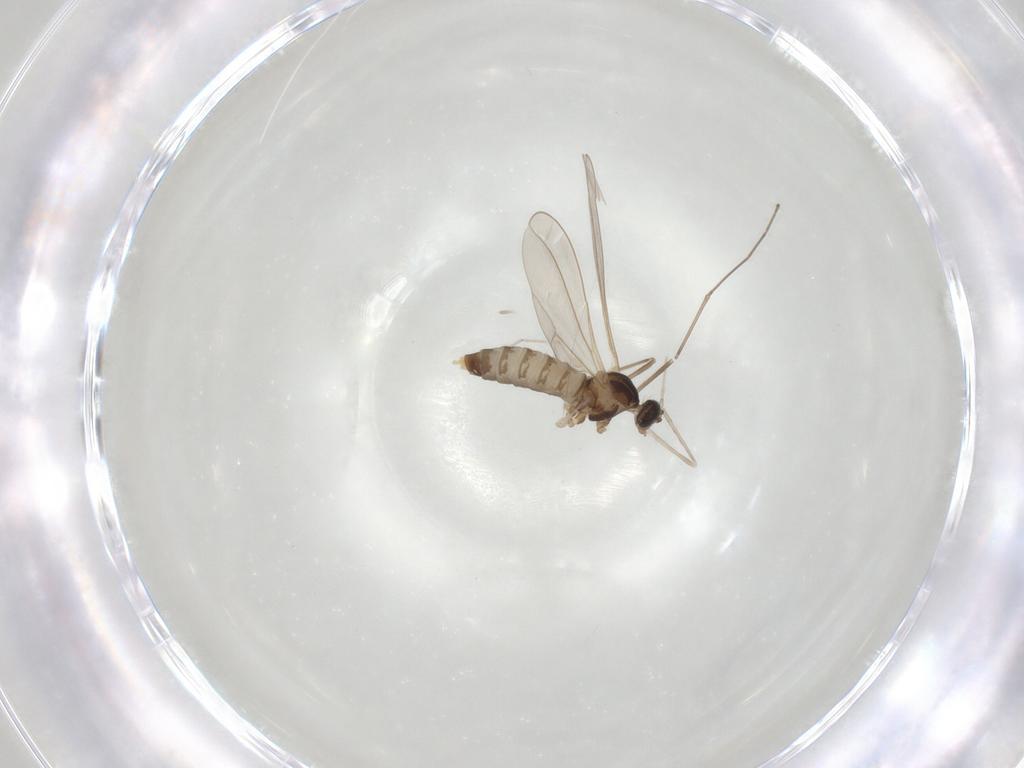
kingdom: Animalia
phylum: Arthropoda
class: Insecta
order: Diptera
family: Cecidomyiidae
